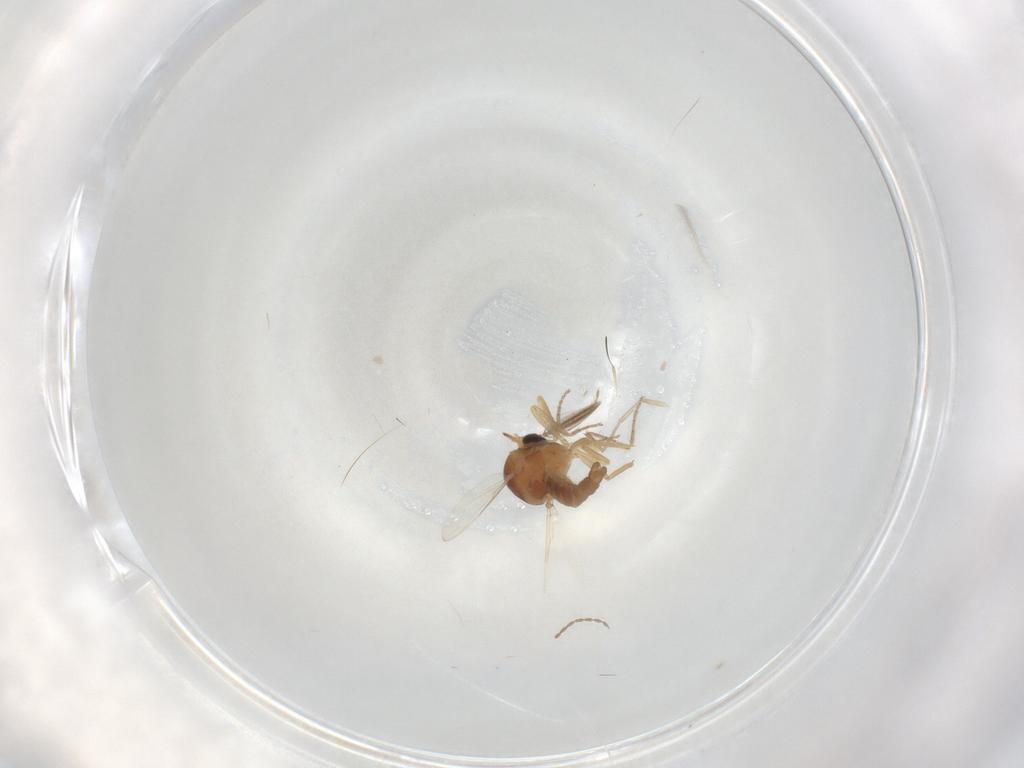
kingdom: Animalia
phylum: Arthropoda
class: Insecta
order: Diptera
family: Ceratopogonidae
